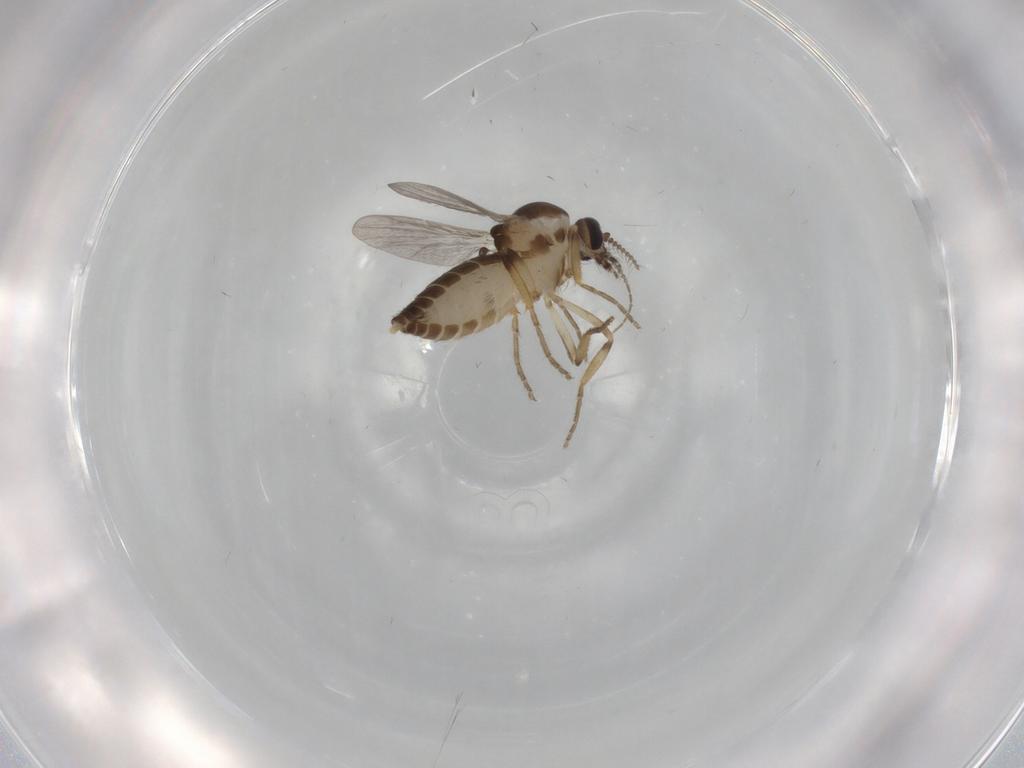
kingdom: Animalia
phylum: Arthropoda
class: Insecta
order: Diptera
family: Ceratopogonidae
